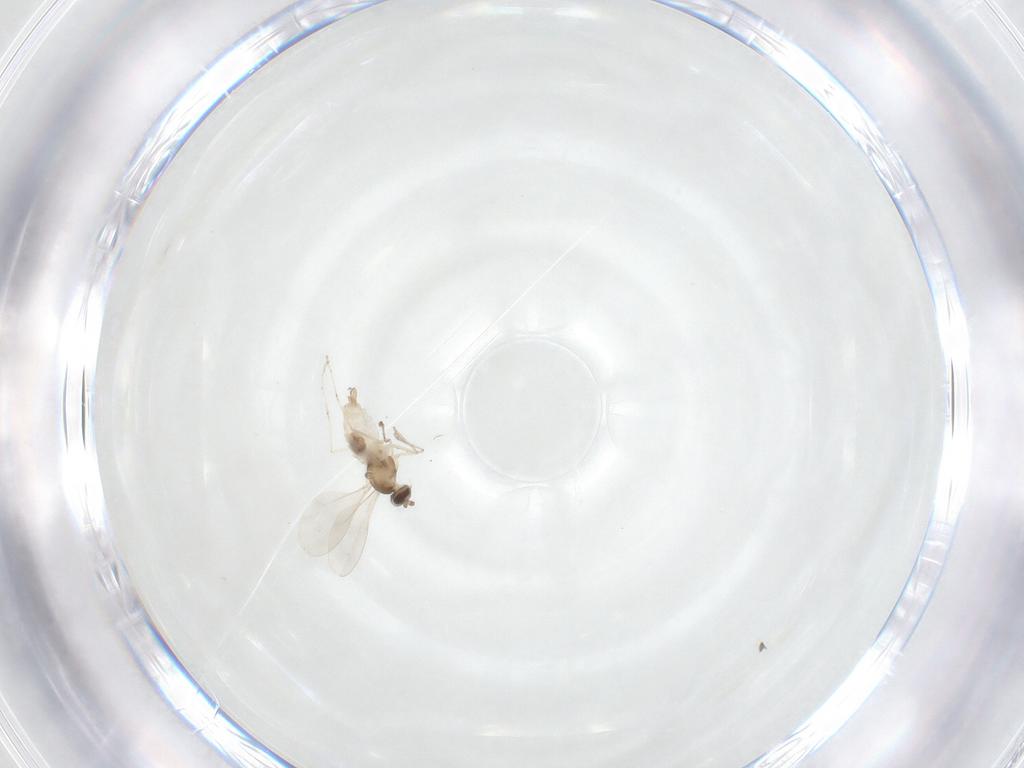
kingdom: Animalia
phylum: Arthropoda
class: Insecta
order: Diptera
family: Cecidomyiidae
